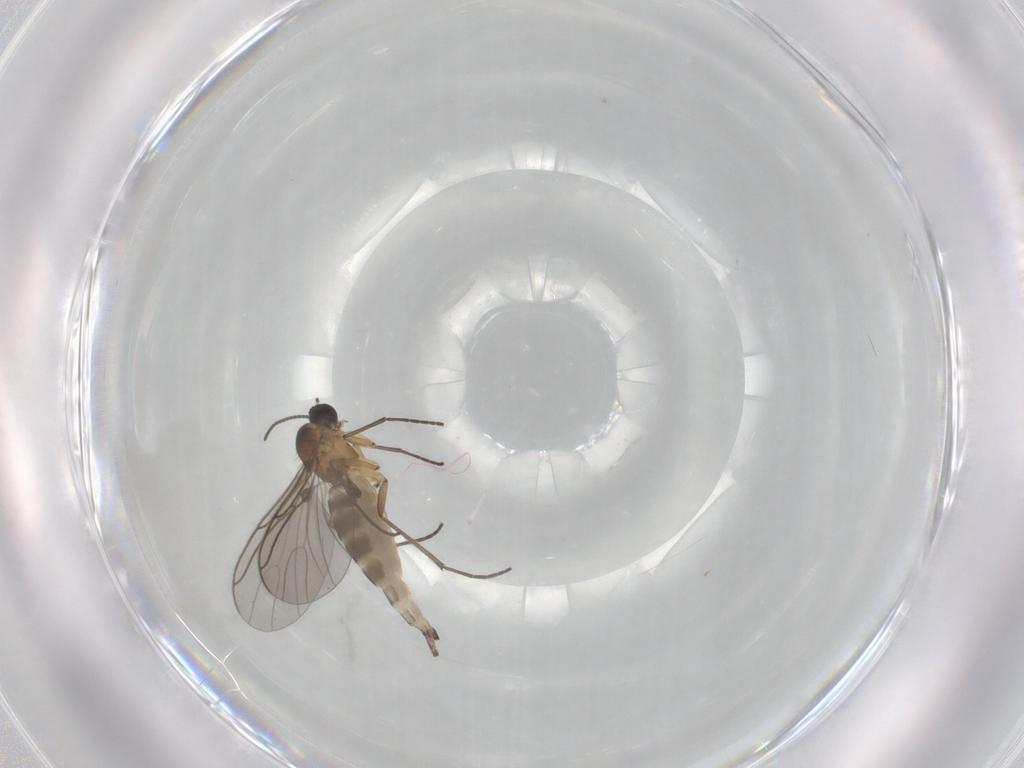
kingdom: Animalia
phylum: Arthropoda
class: Insecta
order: Diptera
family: Sciaridae
